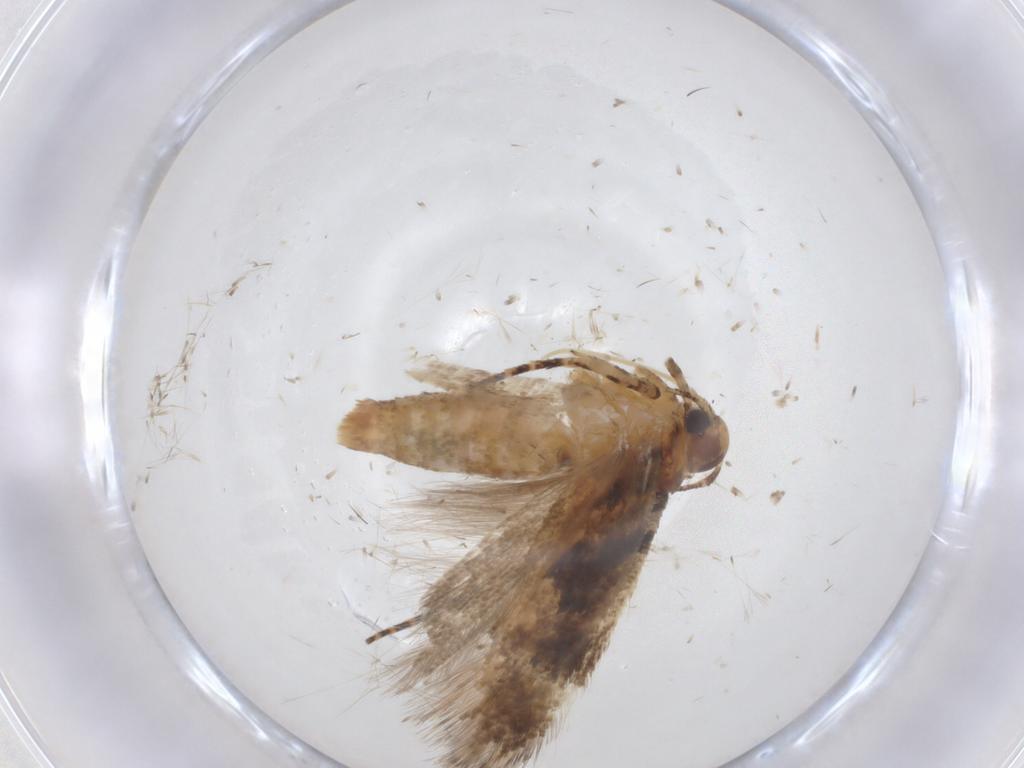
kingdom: Animalia
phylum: Arthropoda
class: Insecta
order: Lepidoptera
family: Gelechiidae
